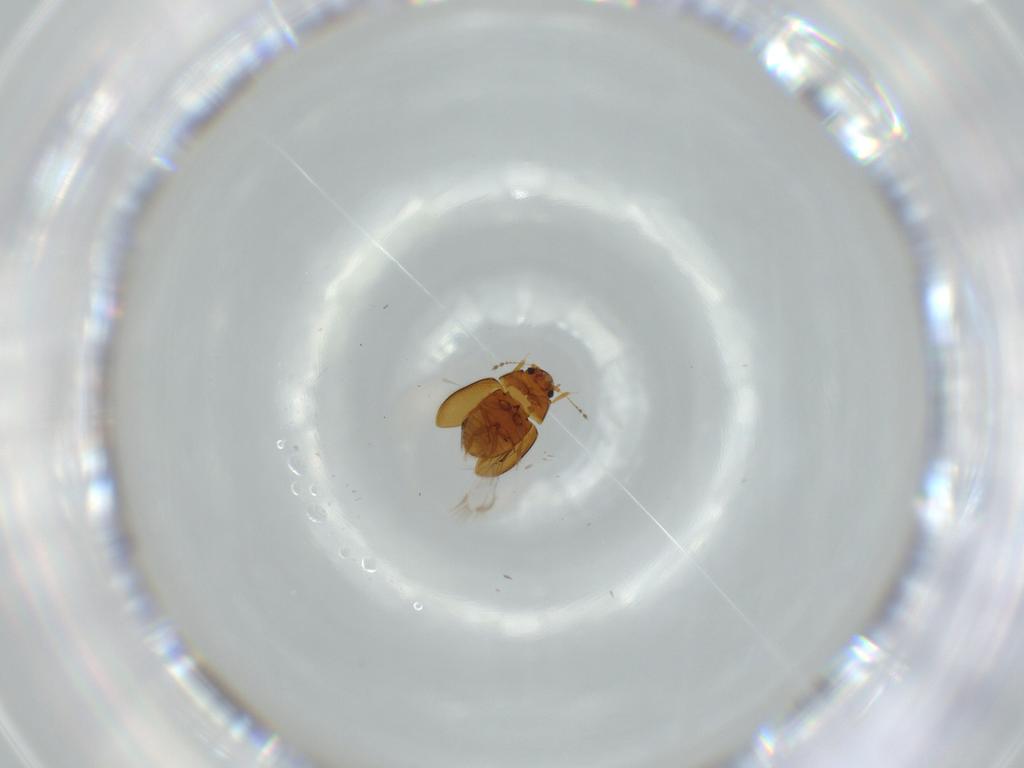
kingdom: Animalia
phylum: Arthropoda
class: Insecta
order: Coleoptera
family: Ptiliidae
